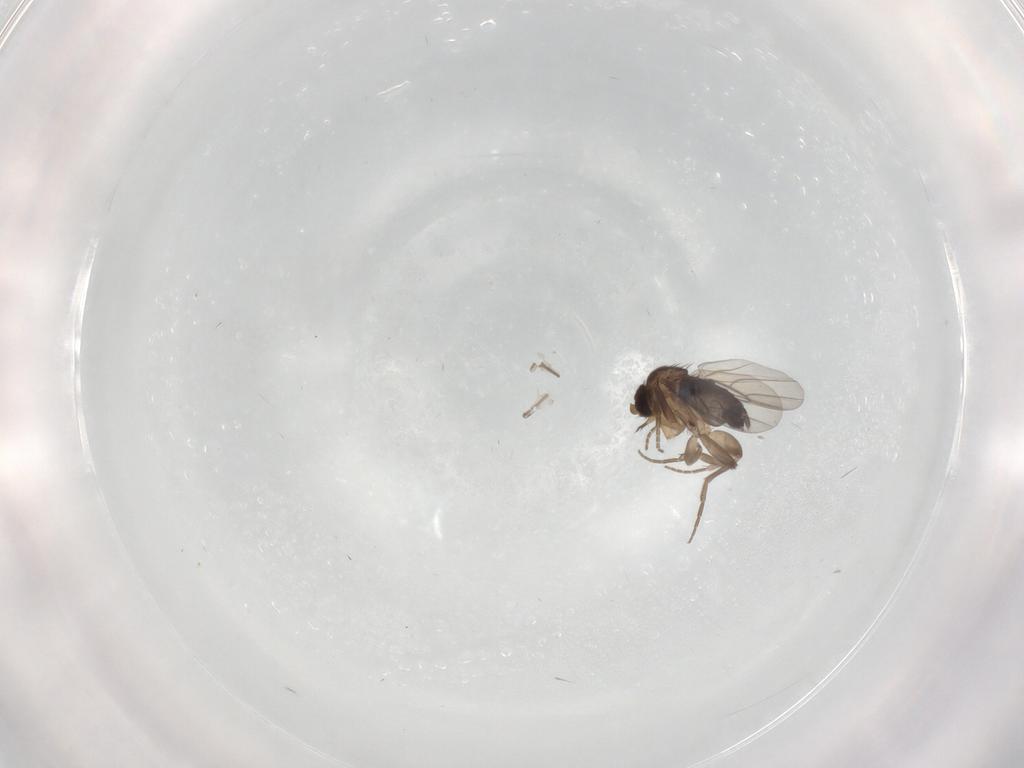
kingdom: Animalia
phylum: Arthropoda
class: Insecta
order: Diptera
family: Phoridae
